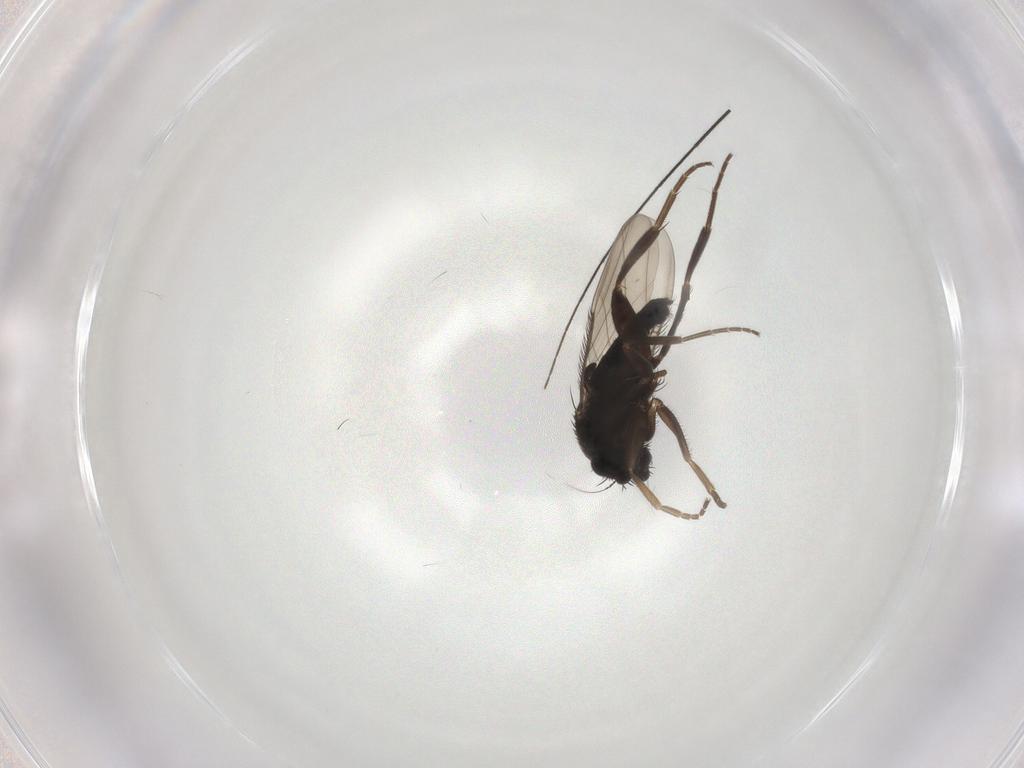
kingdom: Animalia
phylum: Arthropoda
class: Insecta
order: Diptera
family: Phoridae
